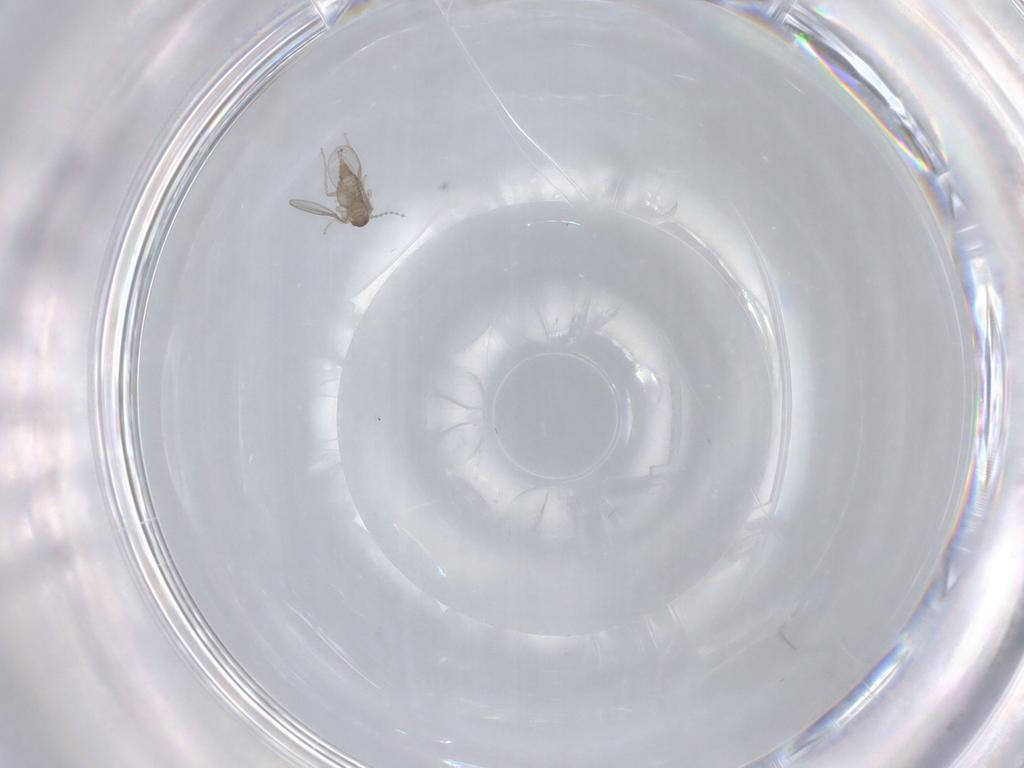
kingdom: Animalia
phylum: Arthropoda
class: Insecta
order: Diptera
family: Cecidomyiidae
